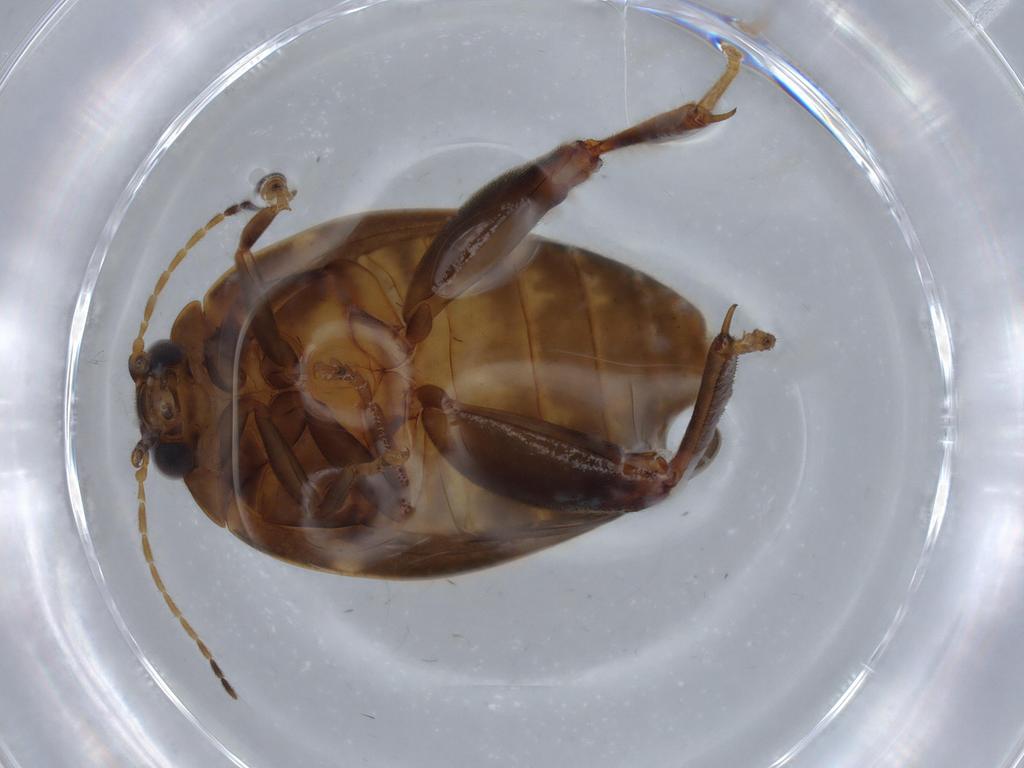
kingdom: Animalia
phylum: Arthropoda
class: Insecta
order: Coleoptera
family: Scirtidae
